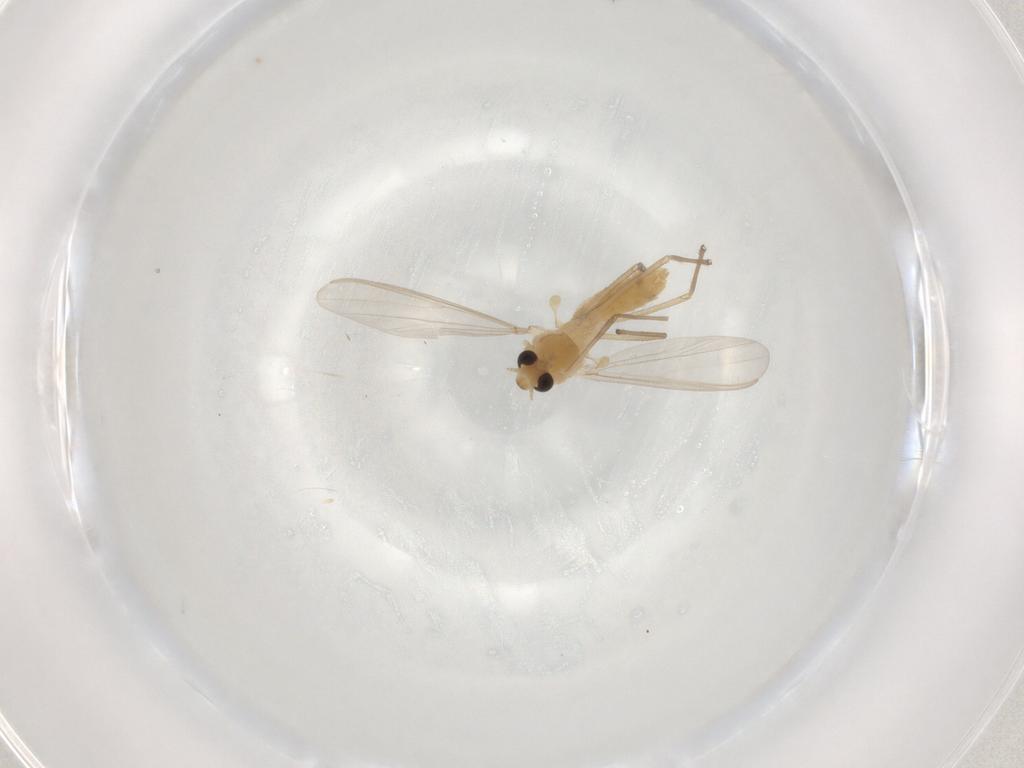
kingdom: Animalia
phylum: Arthropoda
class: Insecta
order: Diptera
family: Chironomidae
